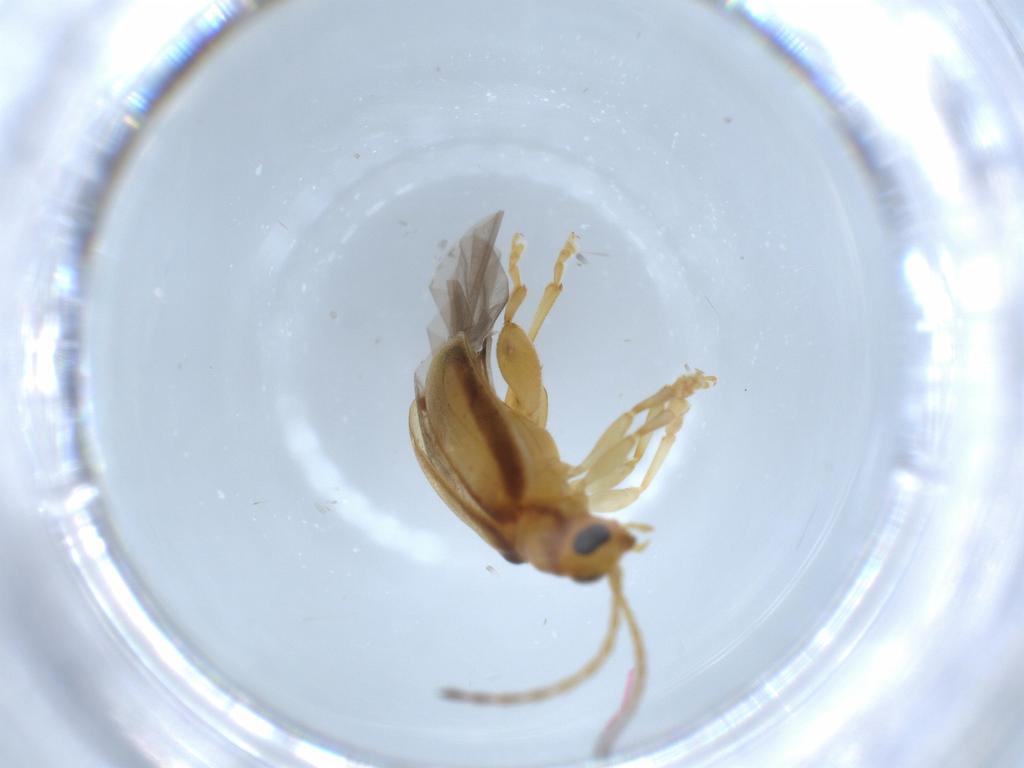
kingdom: Animalia
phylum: Arthropoda
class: Insecta
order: Coleoptera
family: Chrysomelidae
